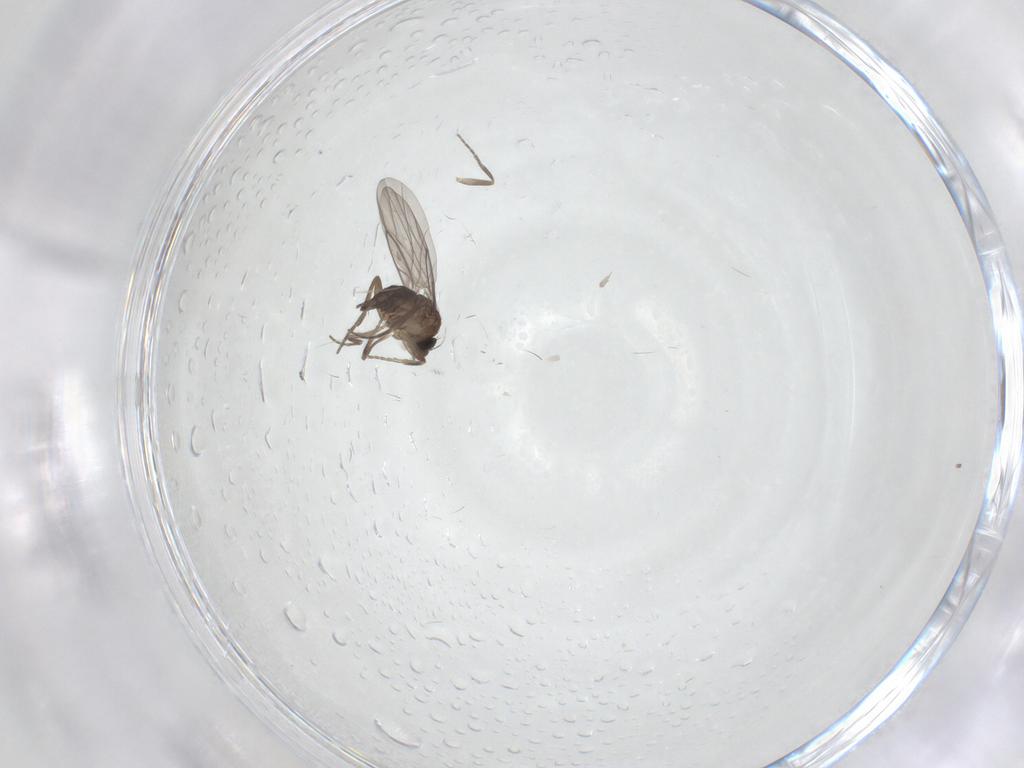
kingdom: Animalia
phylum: Arthropoda
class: Insecta
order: Diptera
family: Phoridae
